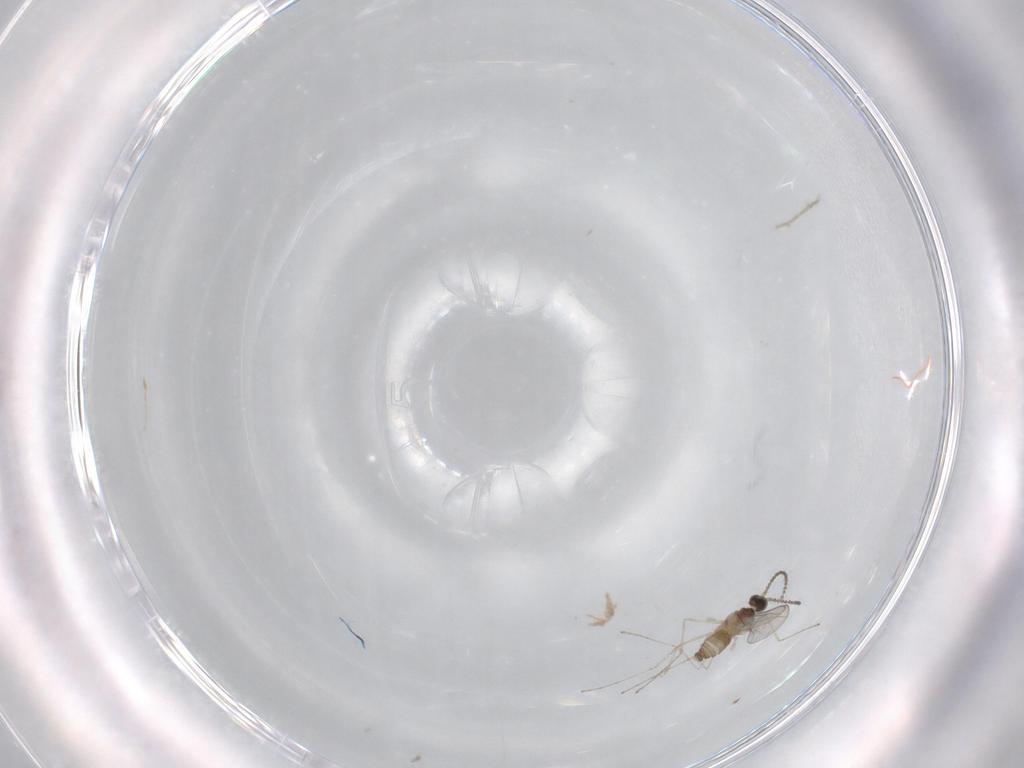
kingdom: Animalia
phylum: Arthropoda
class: Insecta
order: Diptera
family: Cecidomyiidae
